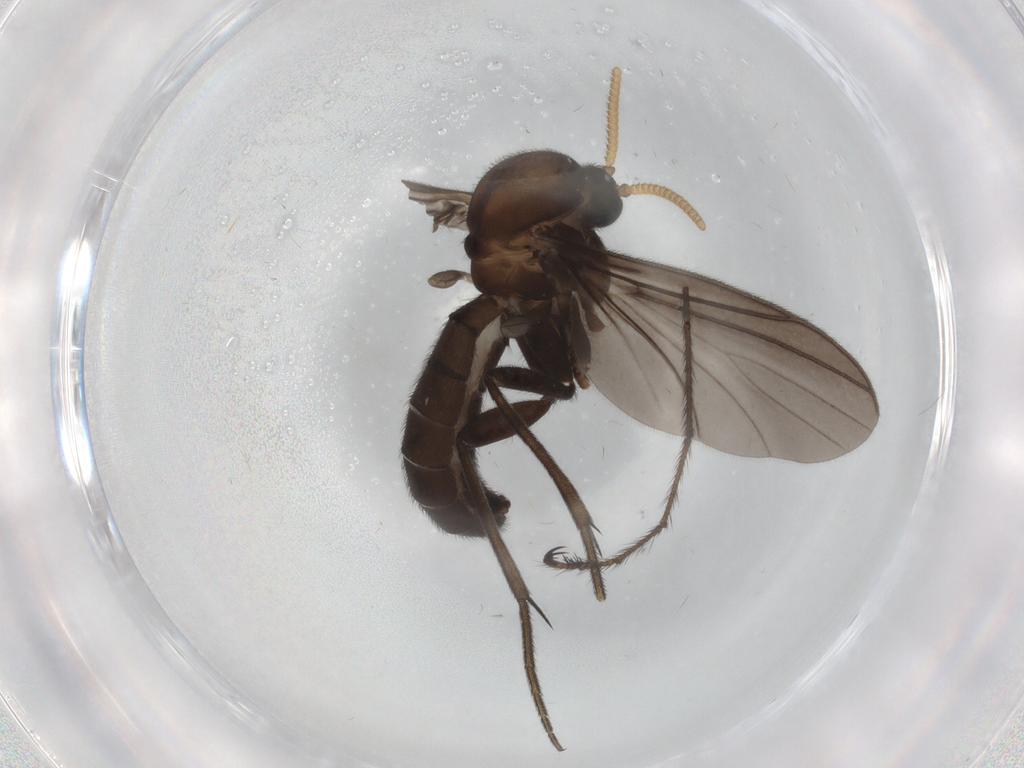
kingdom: Animalia
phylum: Arthropoda
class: Insecta
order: Diptera
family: Mycetophilidae
